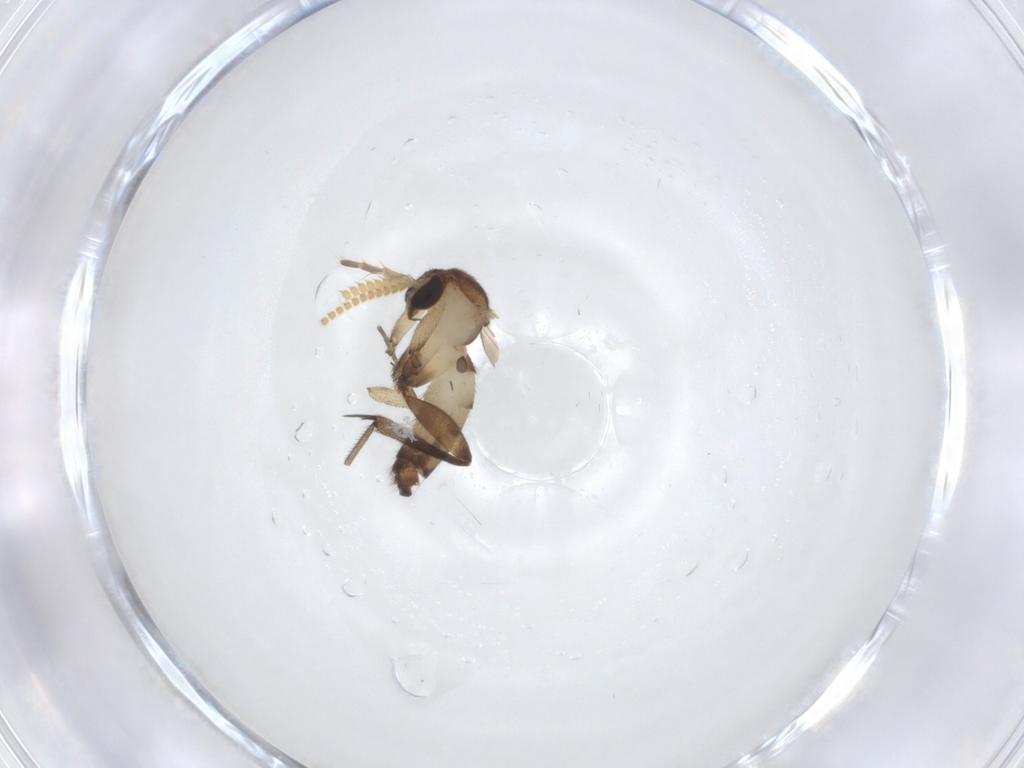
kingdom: Animalia
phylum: Arthropoda
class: Insecta
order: Diptera
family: Mycetophilidae
